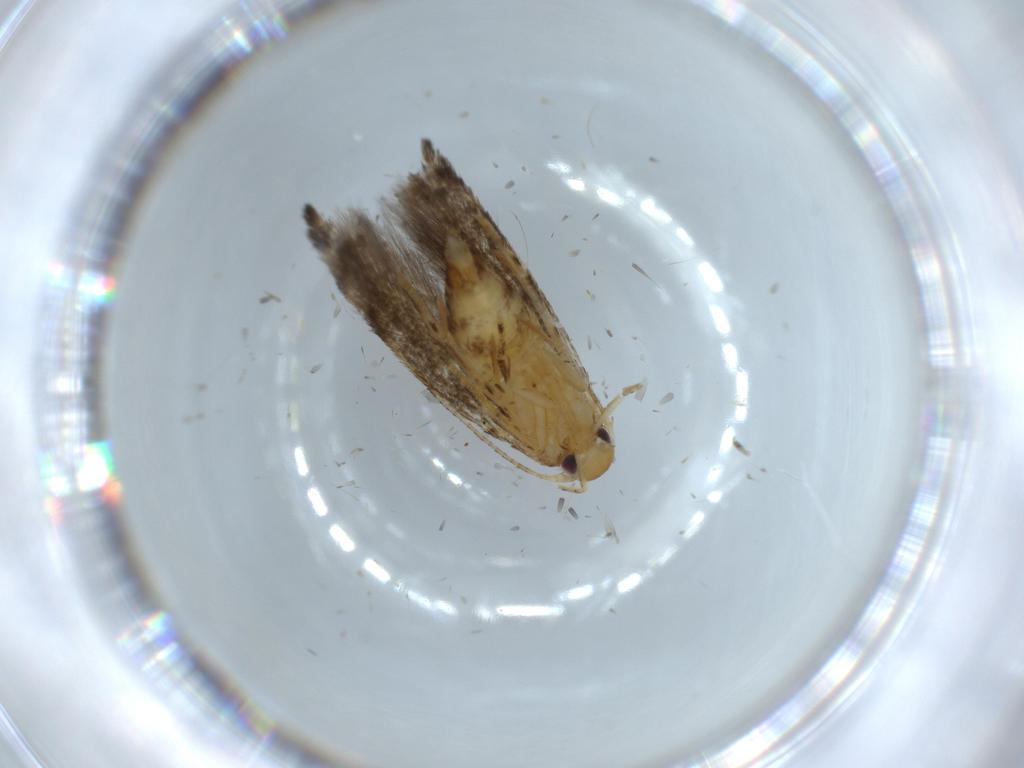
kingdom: Animalia
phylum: Arthropoda
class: Insecta
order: Lepidoptera
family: Momphidae
